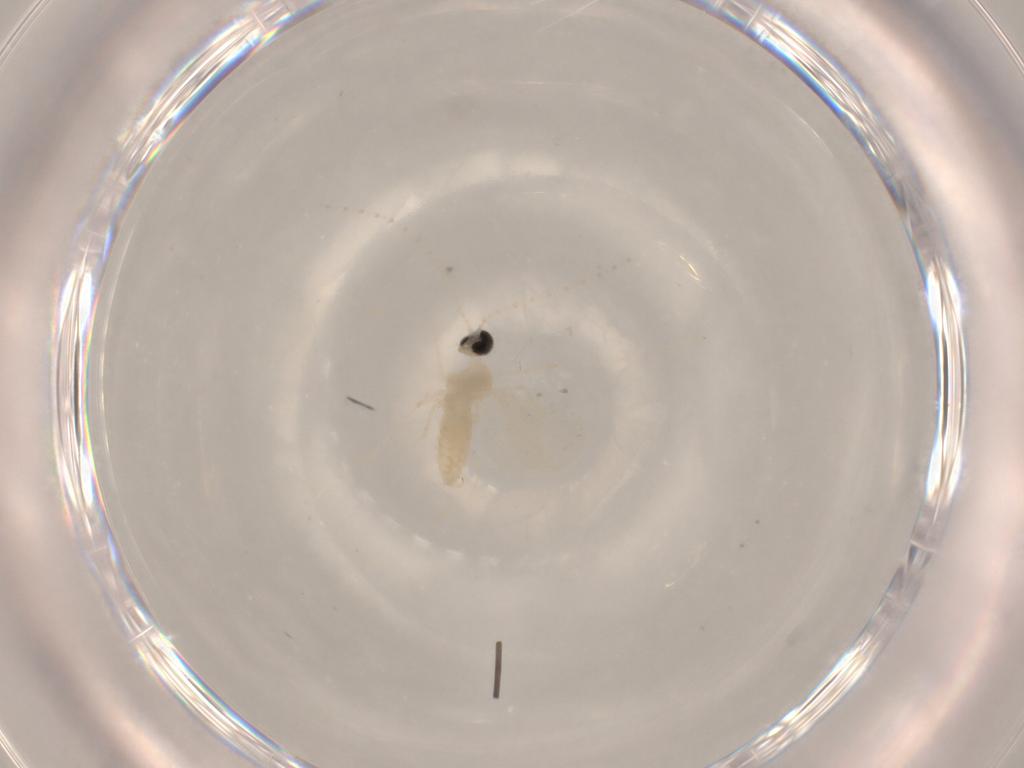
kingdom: Animalia
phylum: Arthropoda
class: Insecta
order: Diptera
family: Cecidomyiidae
